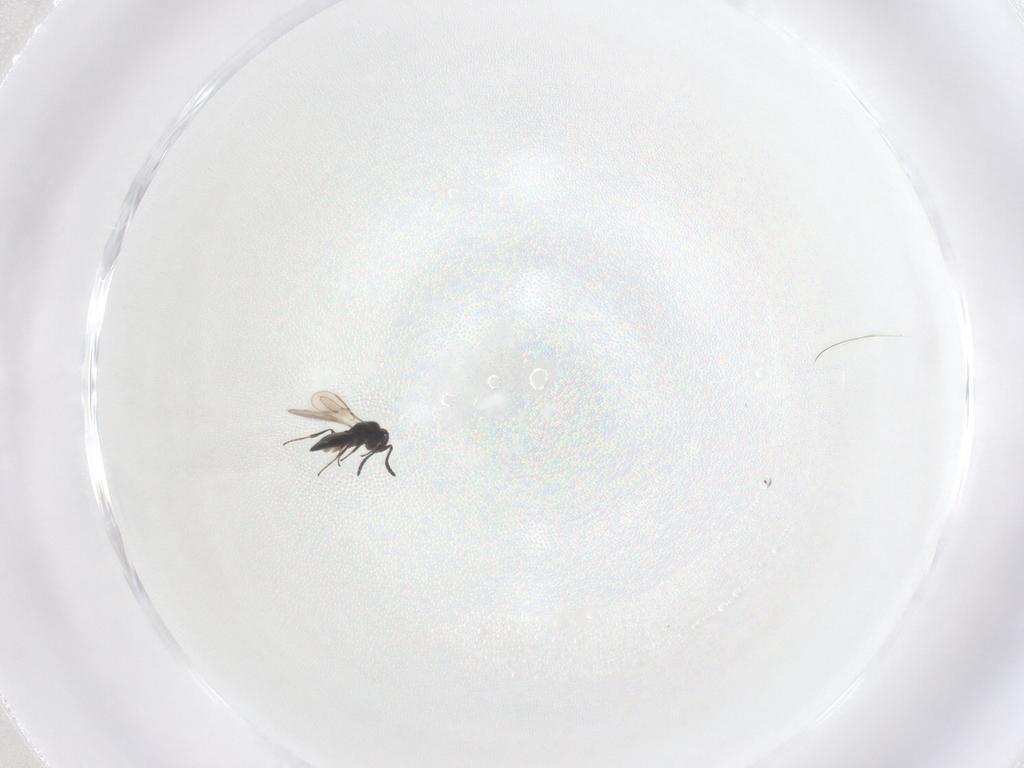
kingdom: Animalia
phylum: Arthropoda
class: Insecta
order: Hymenoptera
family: Scelionidae
